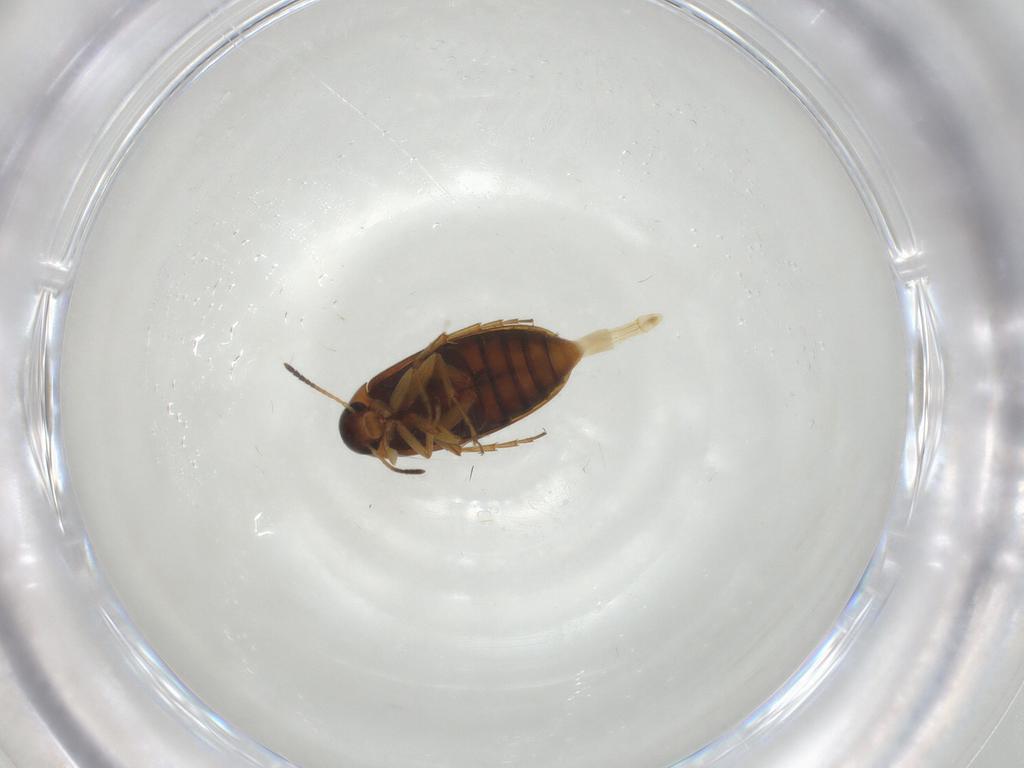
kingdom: Animalia
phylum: Arthropoda
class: Insecta
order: Coleoptera
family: Scraptiidae
